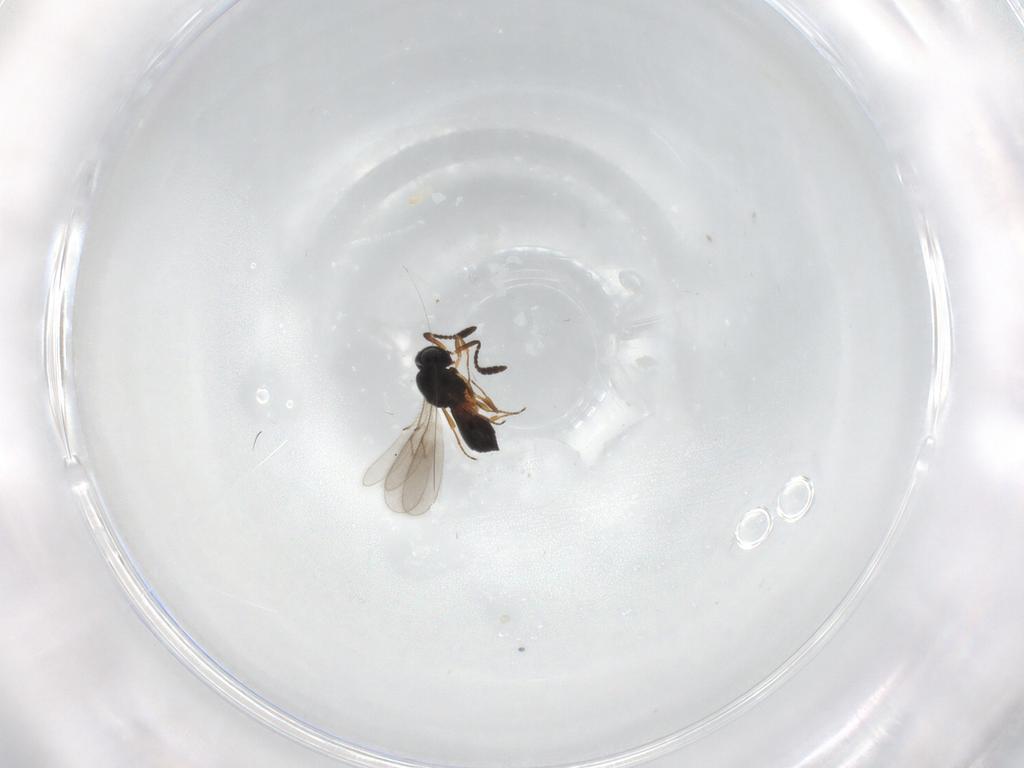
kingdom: Animalia
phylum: Arthropoda
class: Insecta
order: Hymenoptera
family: Scelionidae
